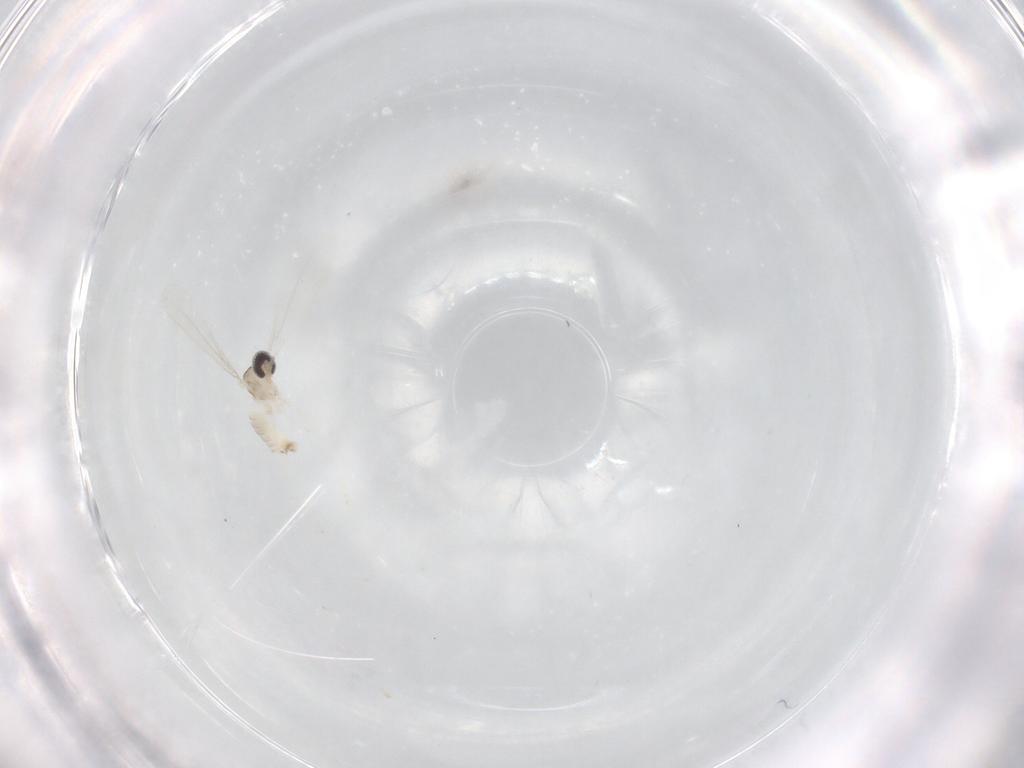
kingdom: Animalia
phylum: Arthropoda
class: Insecta
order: Diptera
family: Cecidomyiidae
